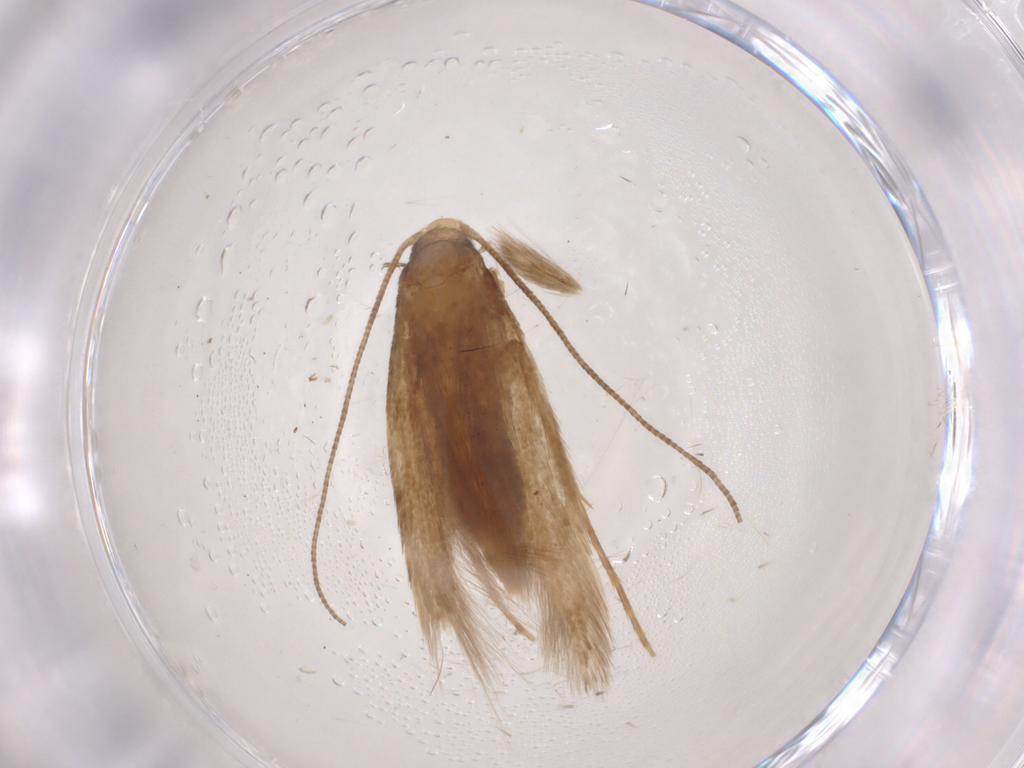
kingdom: Animalia
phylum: Arthropoda
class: Insecta
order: Lepidoptera
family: Tineidae
